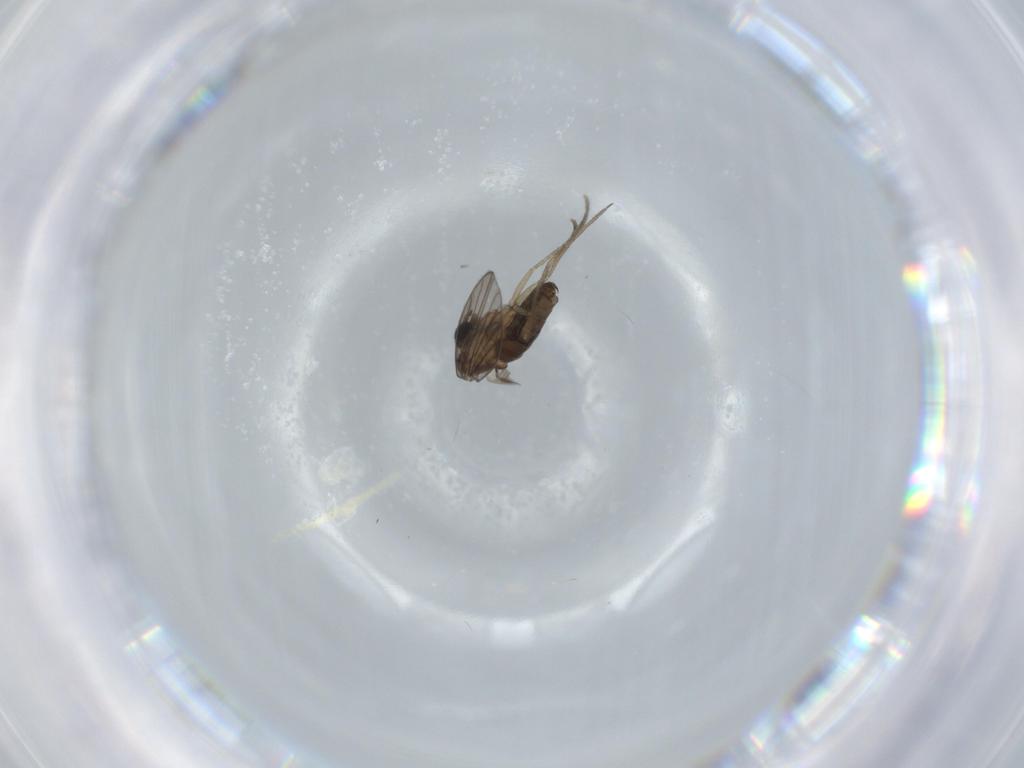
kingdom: Animalia
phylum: Arthropoda
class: Insecta
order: Diptera
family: Psychodidae
